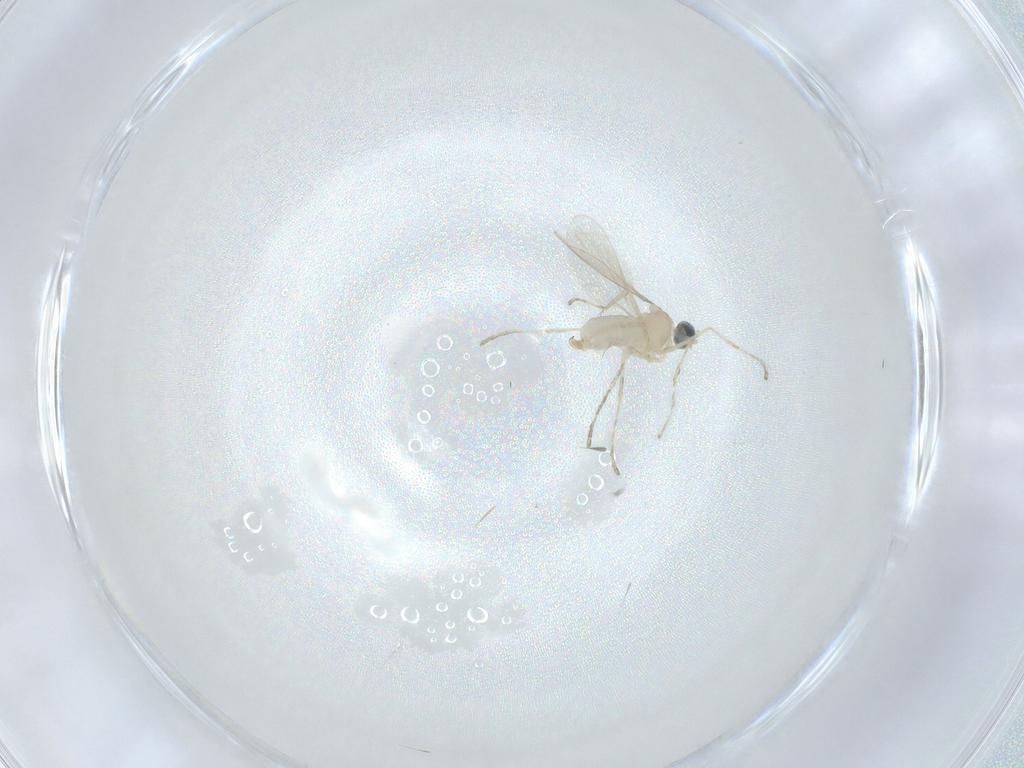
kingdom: Animalia
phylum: Arthropoda
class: Insecta
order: Diptera
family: Cecidomyiidae
